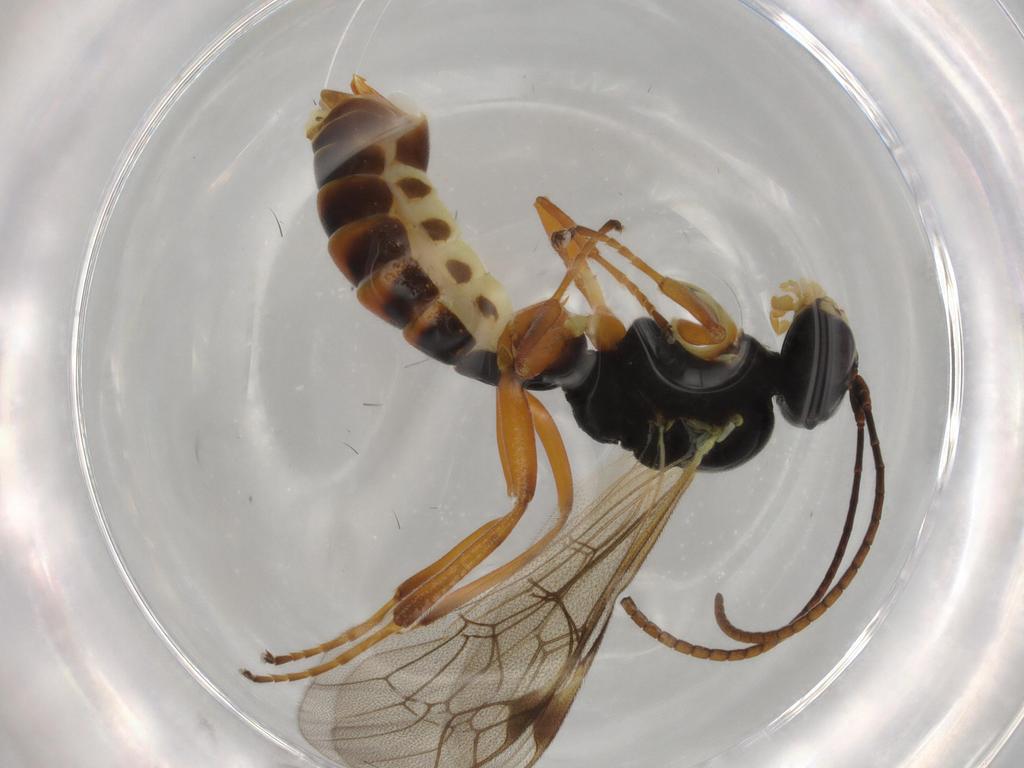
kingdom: Animalia
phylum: Arthropoda
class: Insecta
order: Hymenoptera
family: Ichneumonidae
